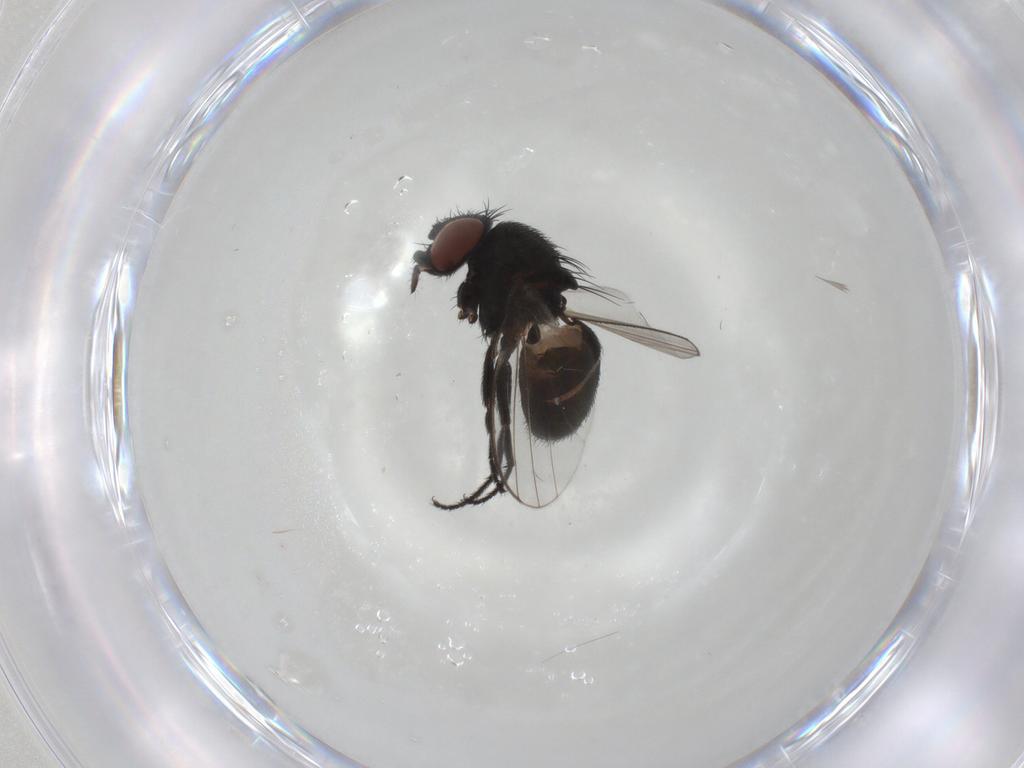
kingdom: Animalia
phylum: Arthropoda
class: Insecta
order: Diptera
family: Milichiidae
